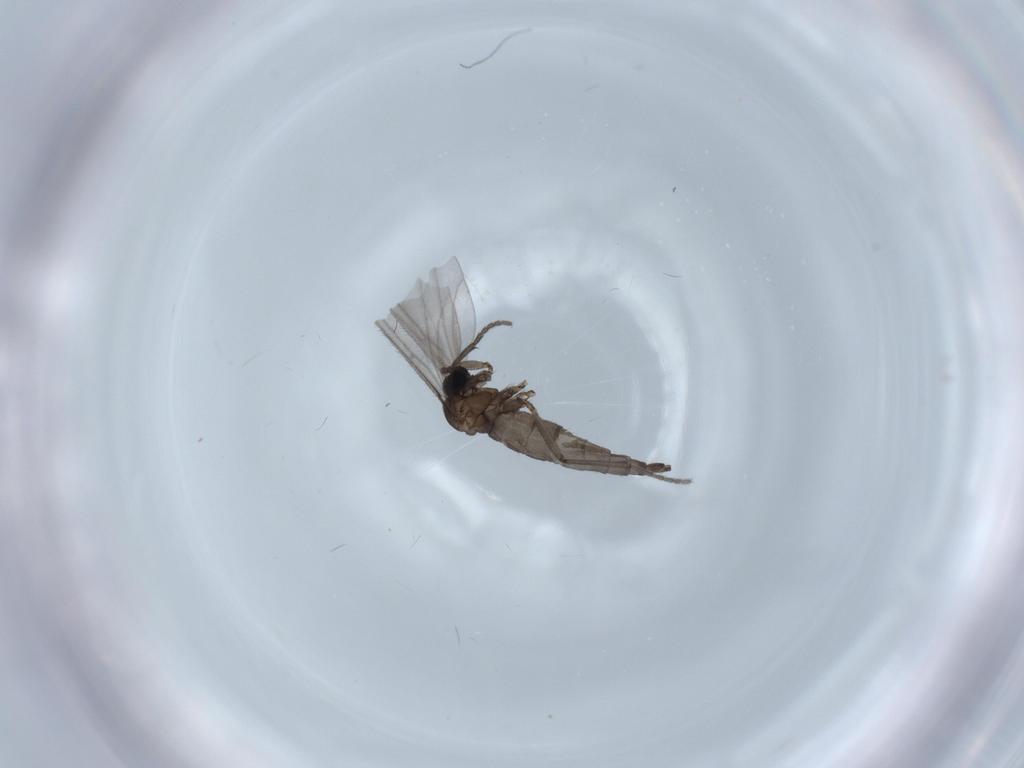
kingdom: Animalia
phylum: Arthropoda
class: Insecta
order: Diptera
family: Sciaridae
